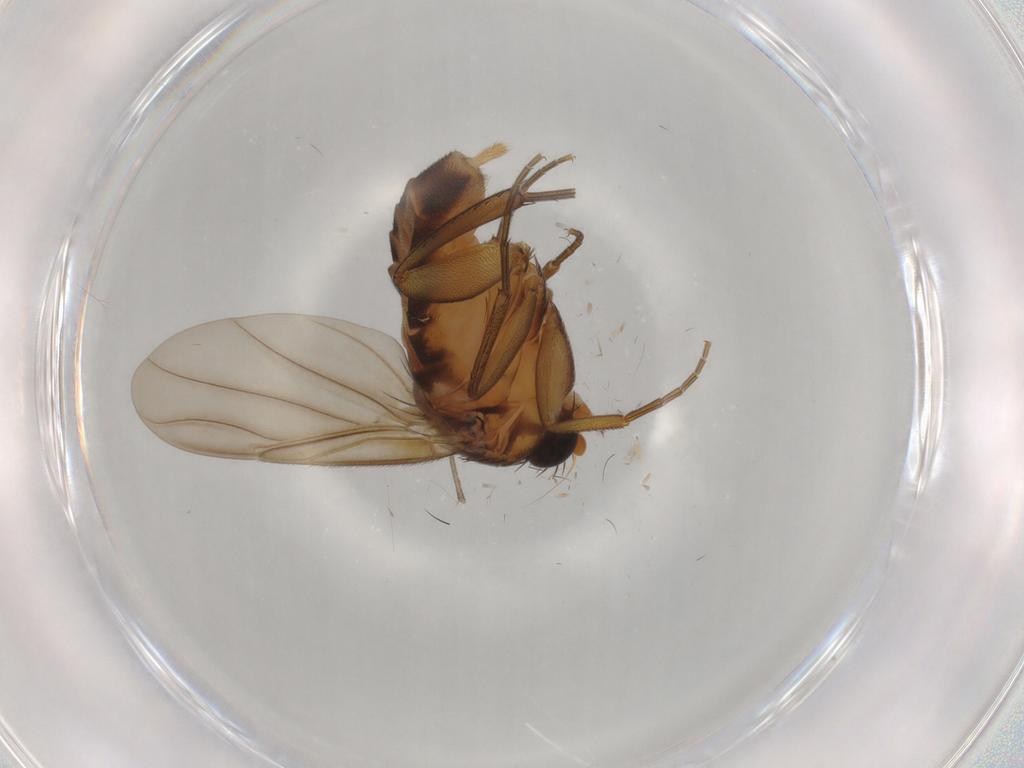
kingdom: Animalia
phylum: Arthropoda
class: Insecta
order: Diptera
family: Phoridae
